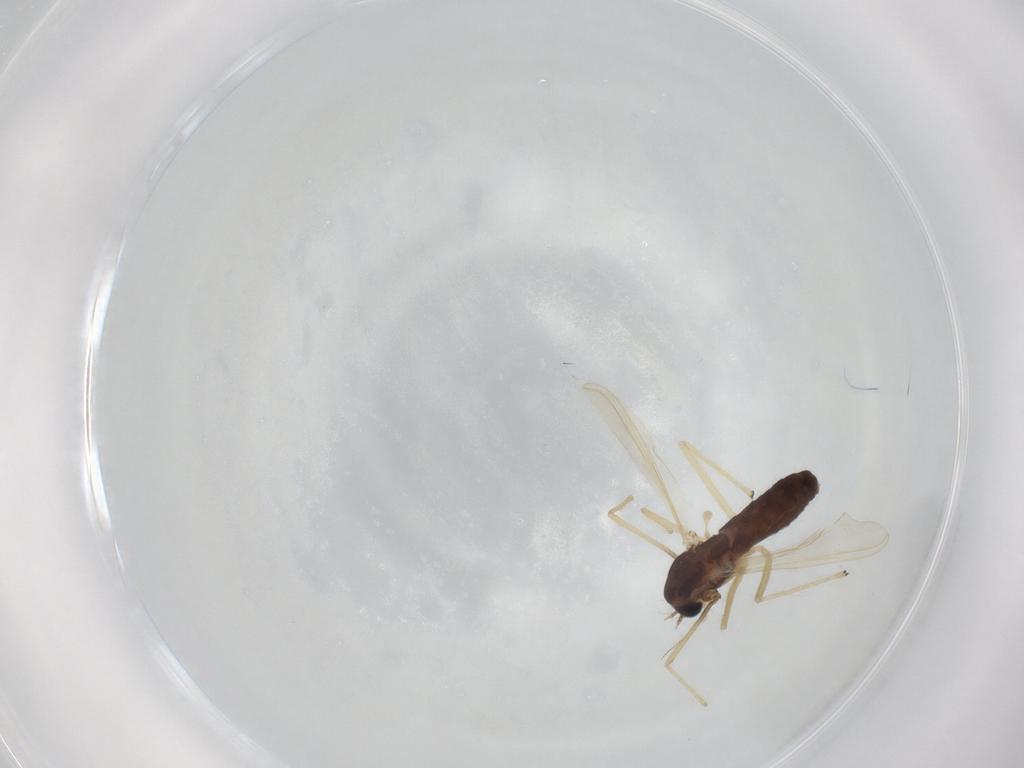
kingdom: Animalia
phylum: Arthropoda
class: Insecta
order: Diptera
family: Chironomidae
